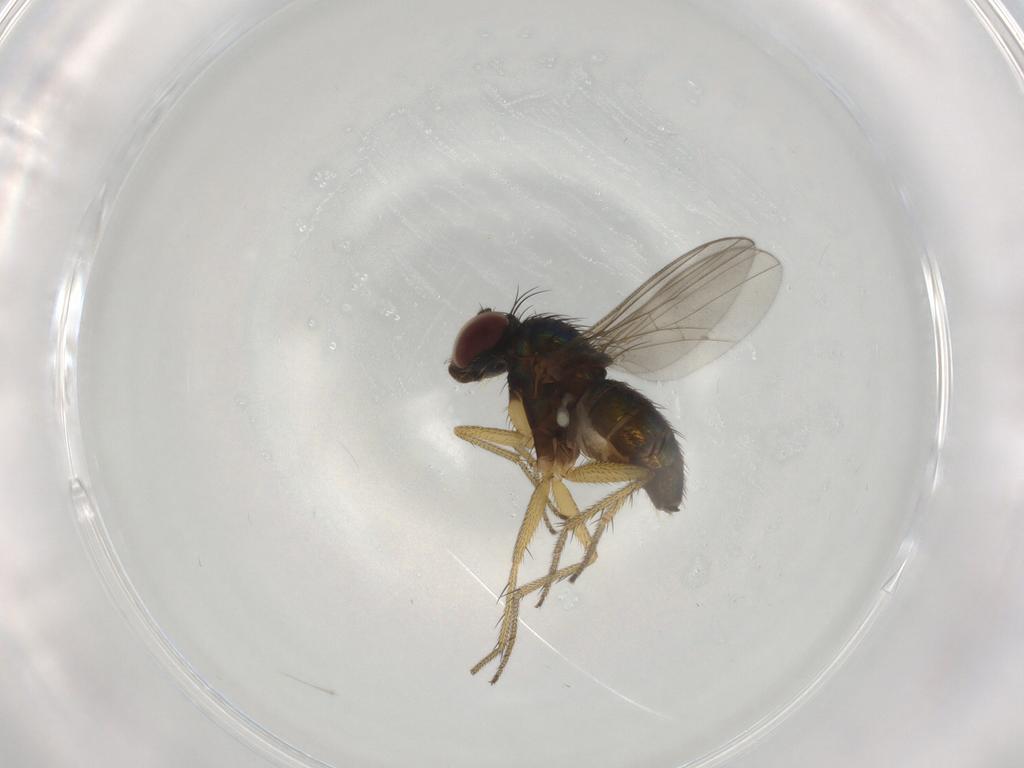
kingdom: Animalia
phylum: Arthropoda
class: Insecta
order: Diptera
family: Dolichopodidae
